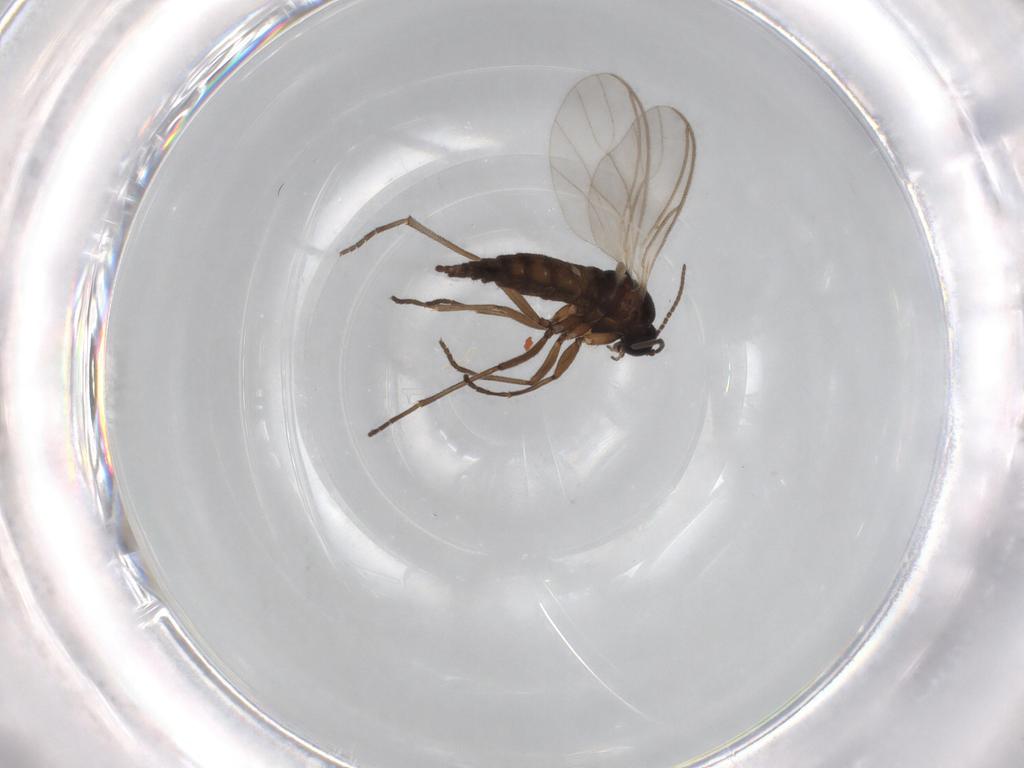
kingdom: Animalia
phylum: Arthropoda
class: Insecta
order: Diptera
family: Sciaridae
